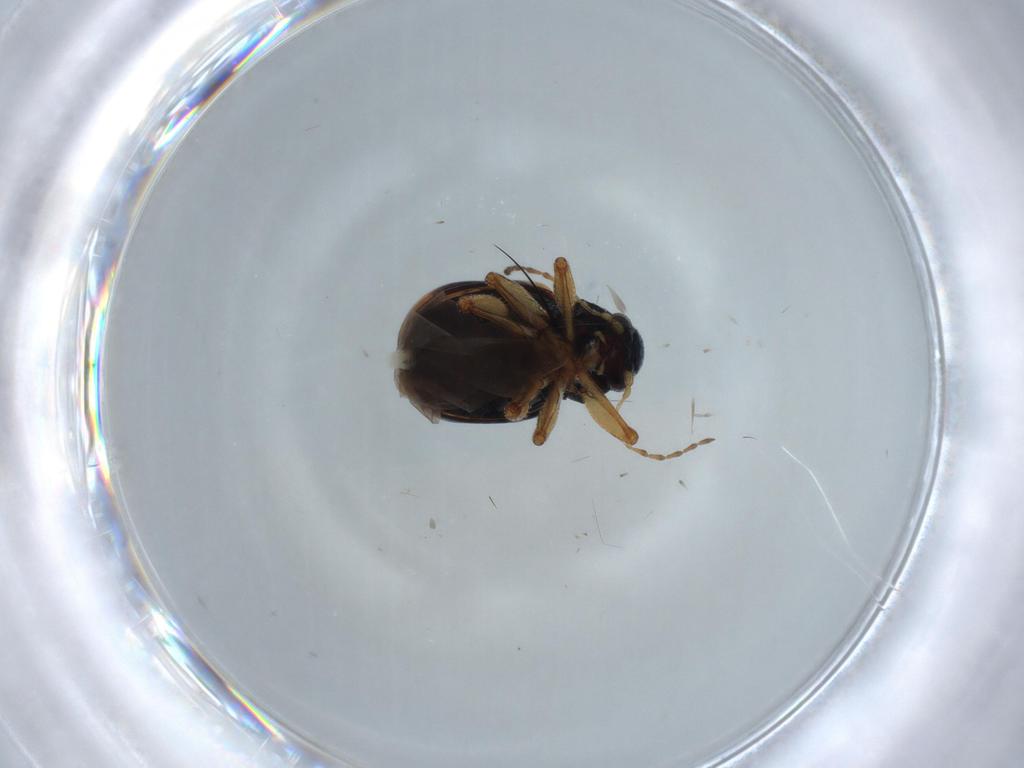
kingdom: Animalia
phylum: Arthropoda
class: Insecta
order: Coleoptera
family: Chrysomelidae
